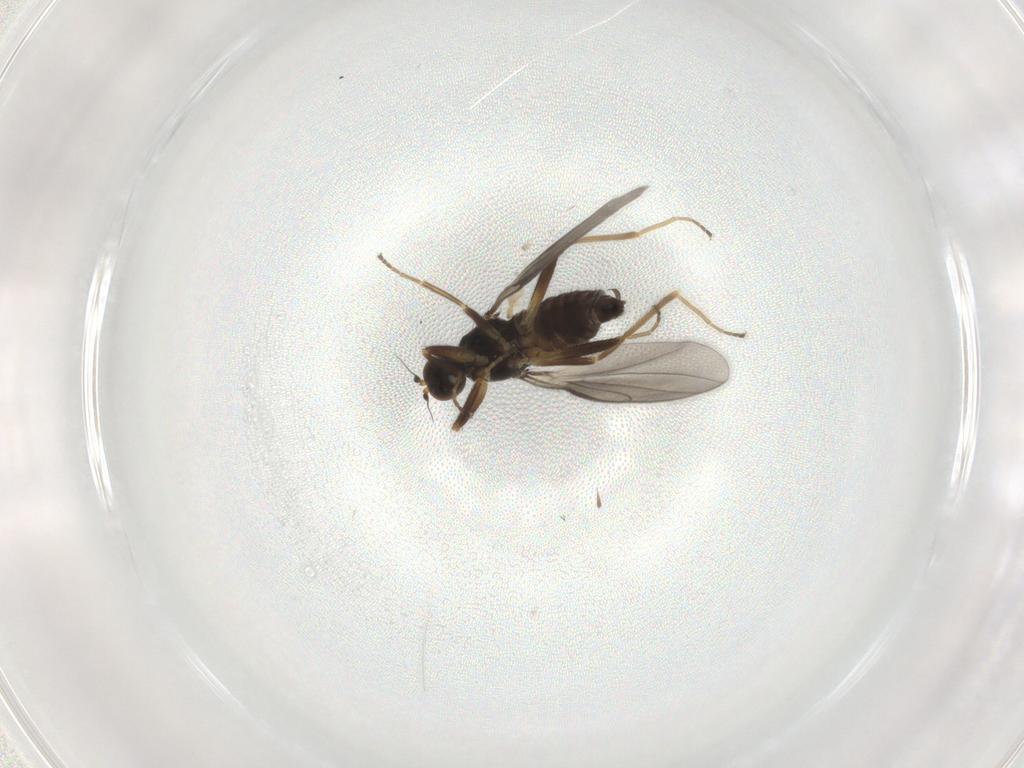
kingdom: Animalia
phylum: Arthropoda
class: Insecta
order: Diptera
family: Hybotidae
